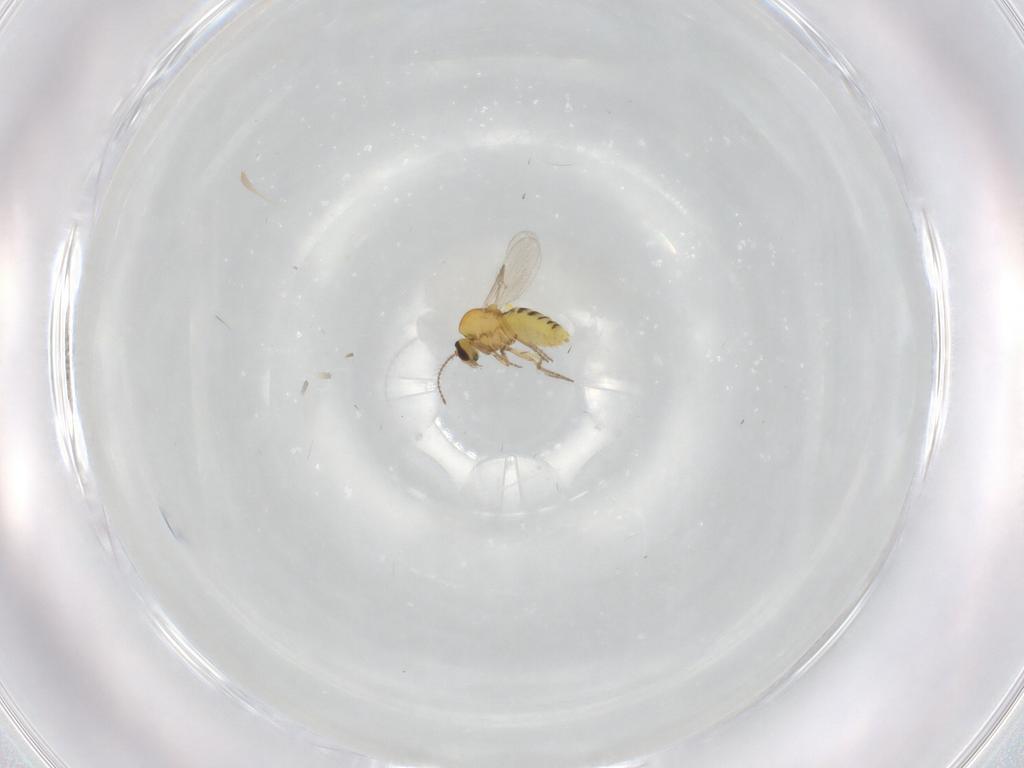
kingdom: Animalia
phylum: Arthropoda
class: Insecta
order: Diptera
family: Ceratopogonidae
